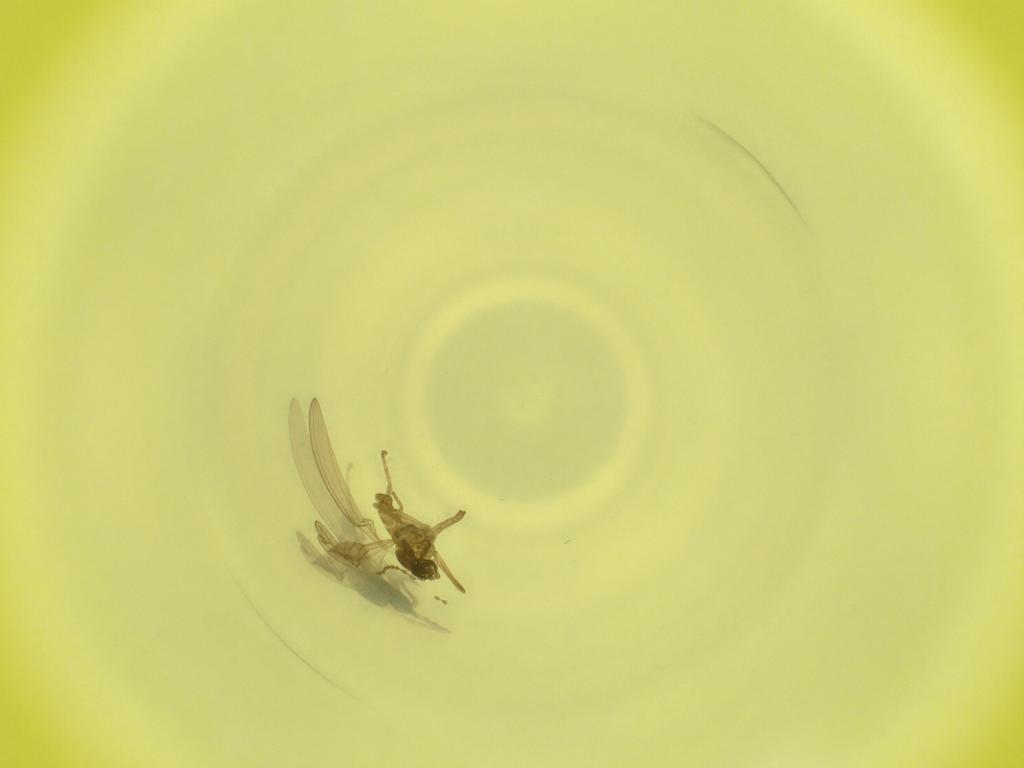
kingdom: Animalia
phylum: Arthropoda
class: Insecta
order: Diptera
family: Cecidomyiidae
